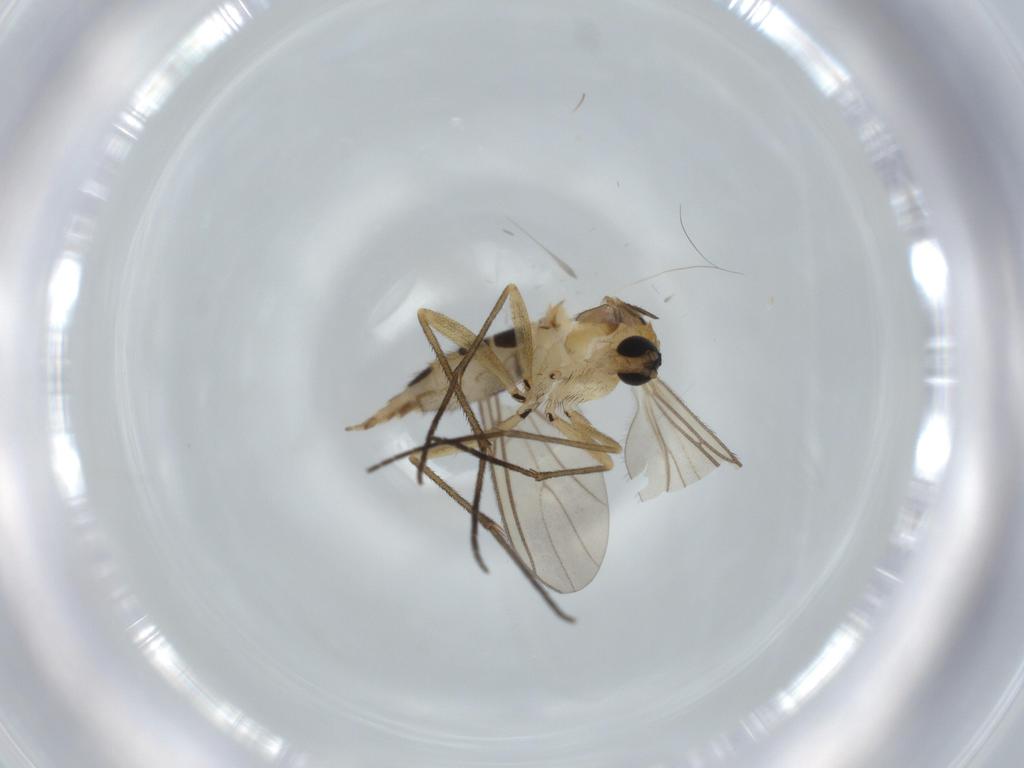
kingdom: Animalia
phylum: Arthropoda
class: Insecta
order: Diptera
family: Sciaridae
